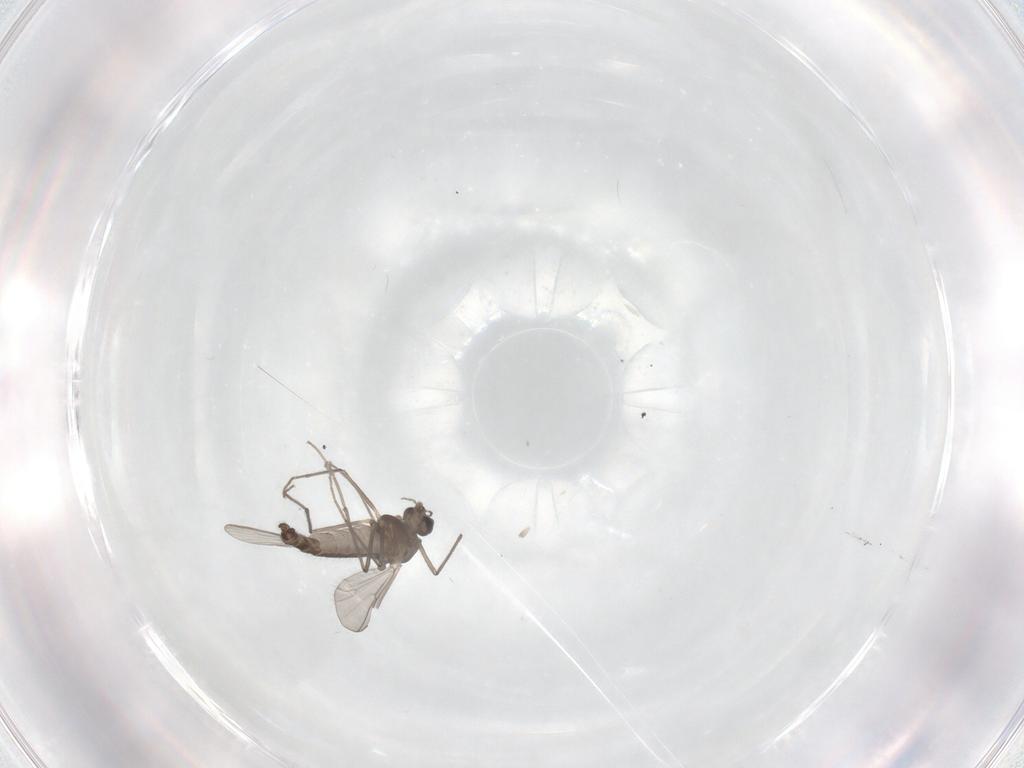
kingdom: Animalia
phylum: Arthropoda
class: Insecta
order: Diptera
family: Chironomidae
